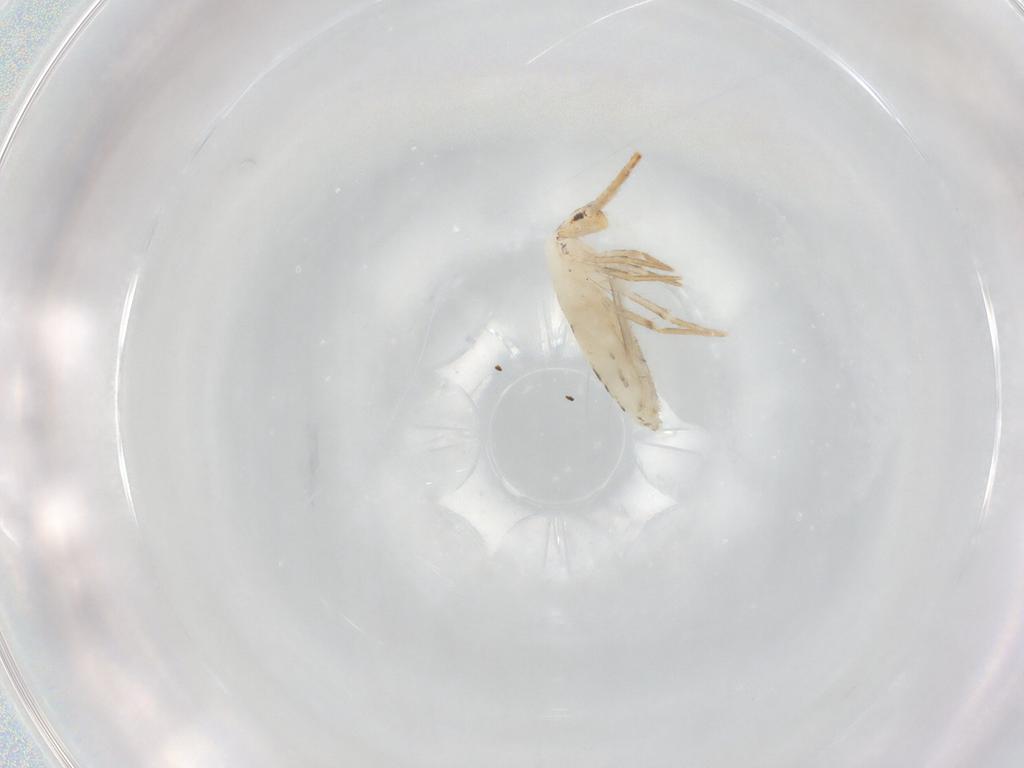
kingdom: Animalia
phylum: Arthropoda
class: Collembola
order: Entomobryomorpha
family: Entomobryidae
